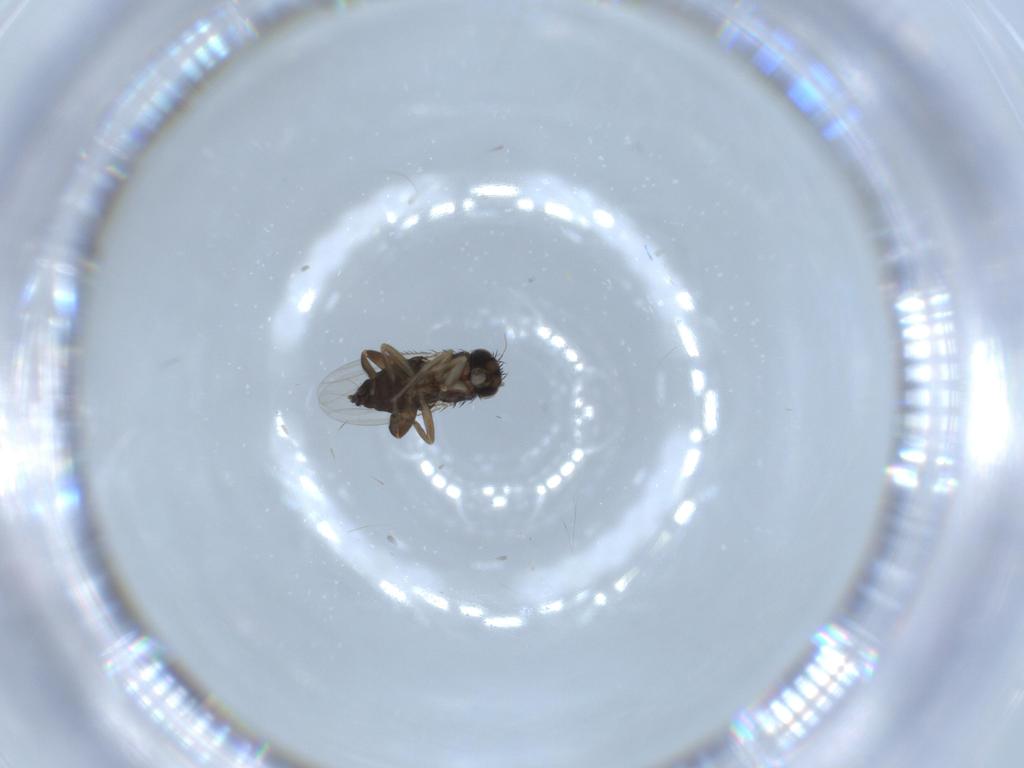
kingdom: Animalia
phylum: Arthropoda
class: Insecta
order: Diptera
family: Phoridae
